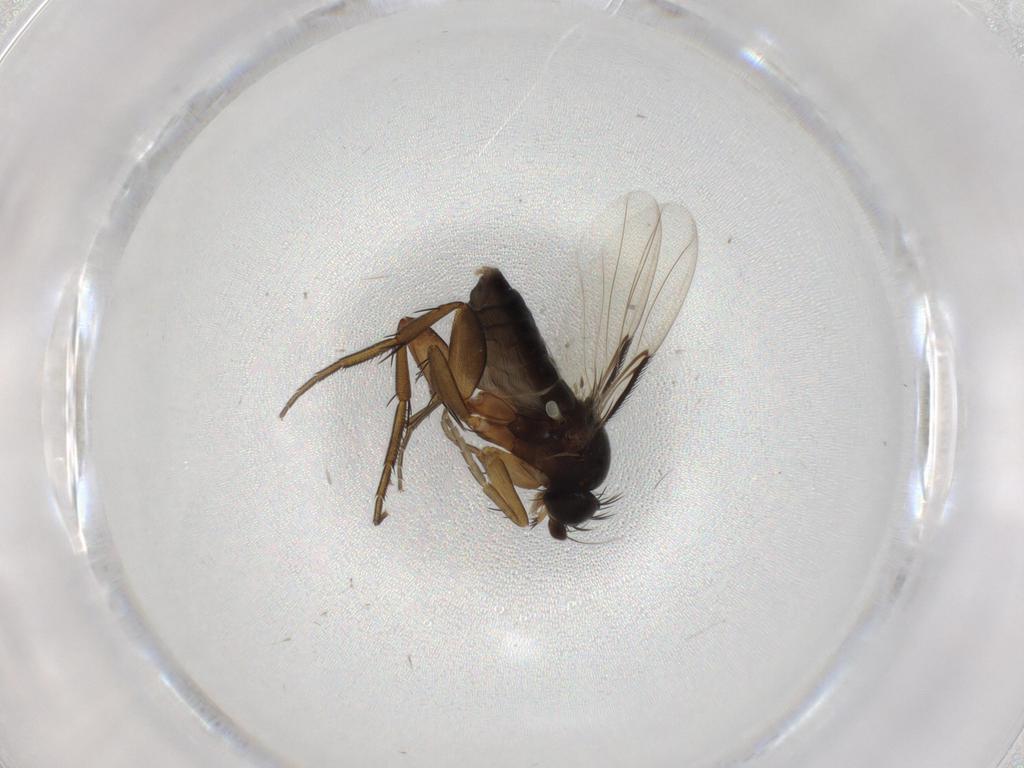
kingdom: Animalia
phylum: Arthropoda
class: Insecta
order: Diptera
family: Phoridae
